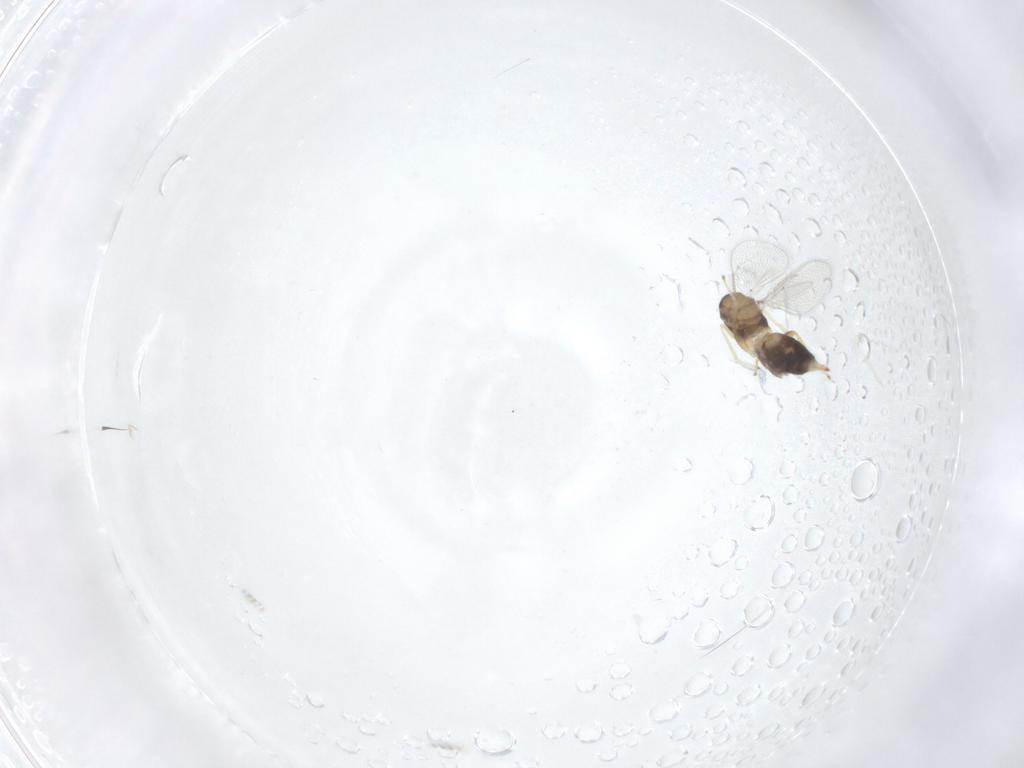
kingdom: Animalia
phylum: Arthropoda
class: Insecta
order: Hymenoptera
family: Eulophidae
